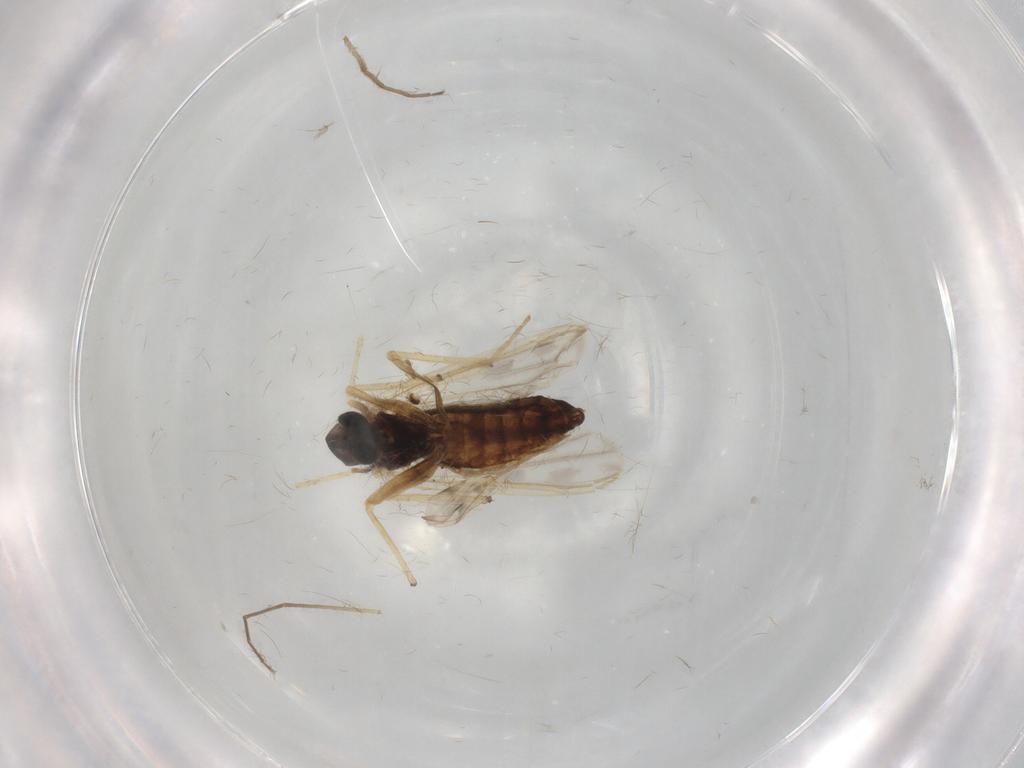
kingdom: Animalia
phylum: Arthropoda
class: Insecta
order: Diptera
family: Chironomidae
